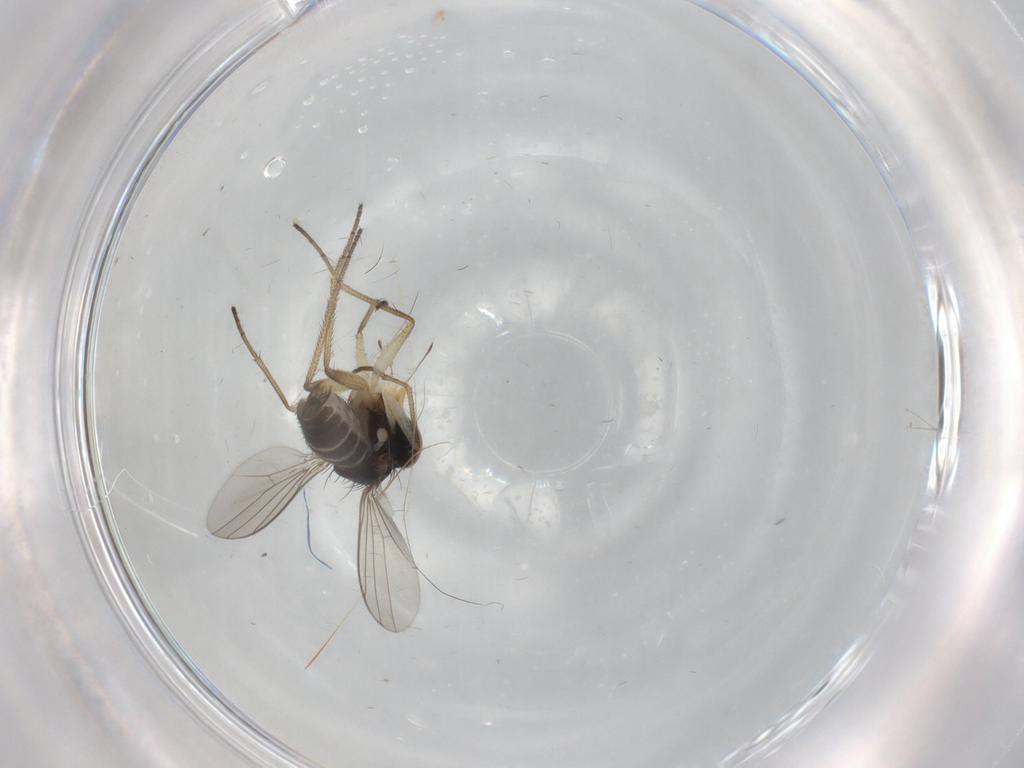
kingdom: Animalia
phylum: Arthropoda
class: Insecta
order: Diptera
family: Dolichopodidae
